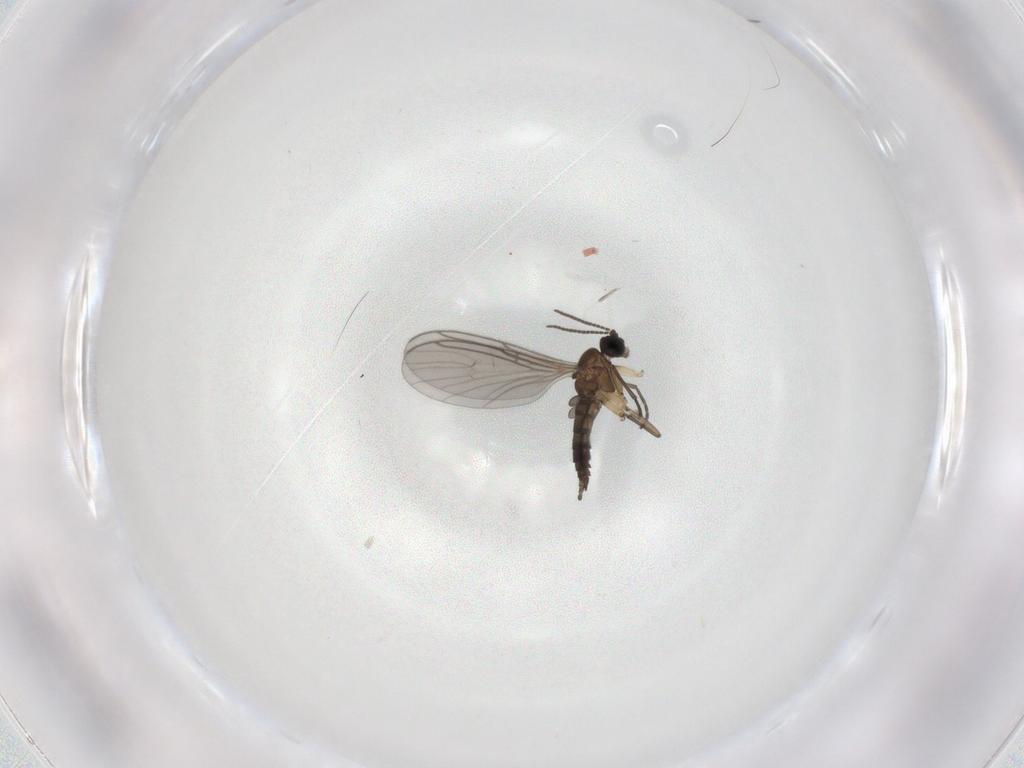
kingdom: Animalia
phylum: Arthropoda
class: Insecta
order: Diptera
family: Sciaridae
